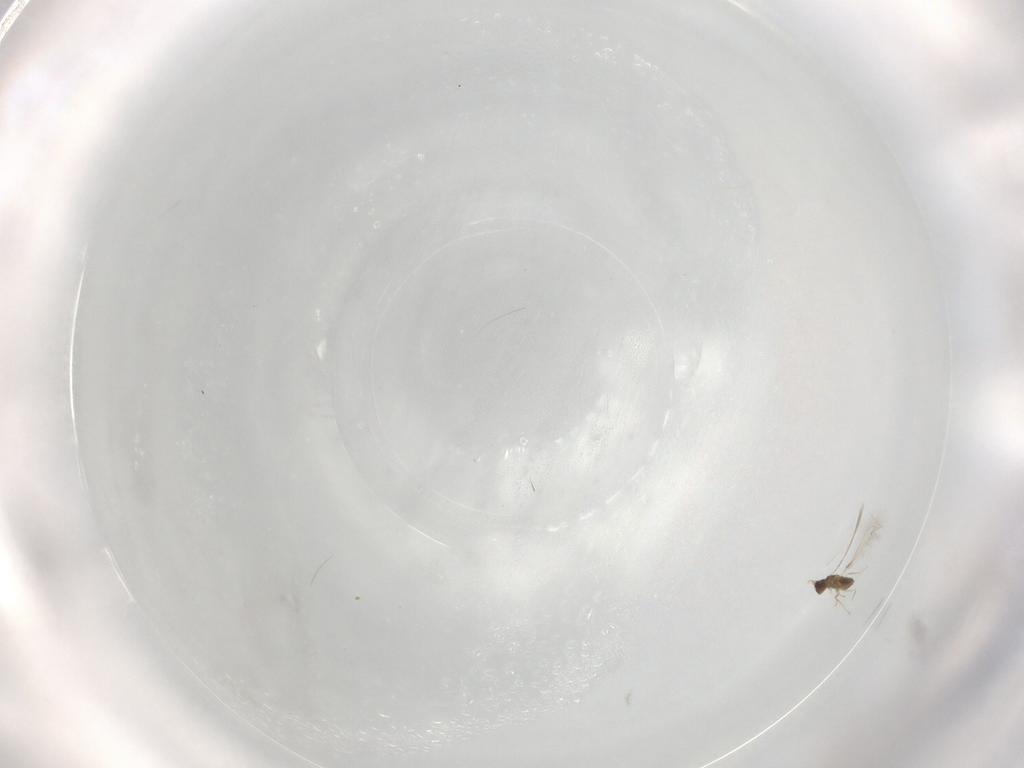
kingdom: Animalia
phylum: Arthropoda
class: Insecta
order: Hymenoptera
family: Mymaridae
